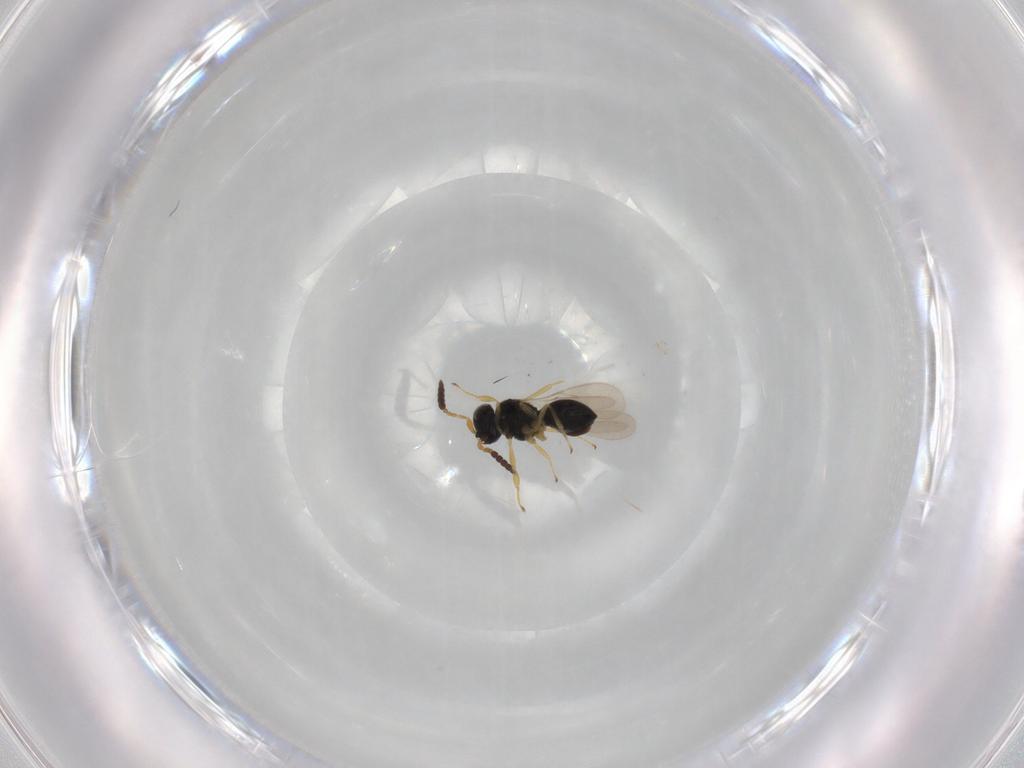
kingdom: Animalia
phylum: Arthropoda
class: Insecta
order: Hymenoptera
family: Scelionidae
